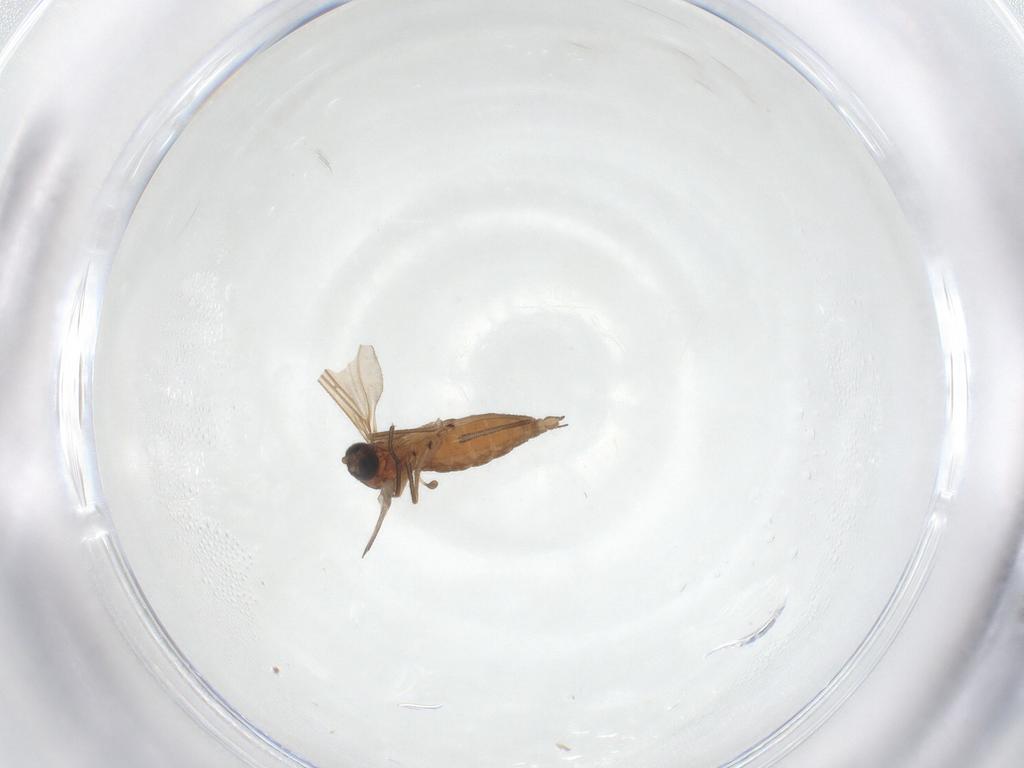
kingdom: Animalia
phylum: Arthropoda
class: Insecta
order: Diptera
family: Sciaridae
